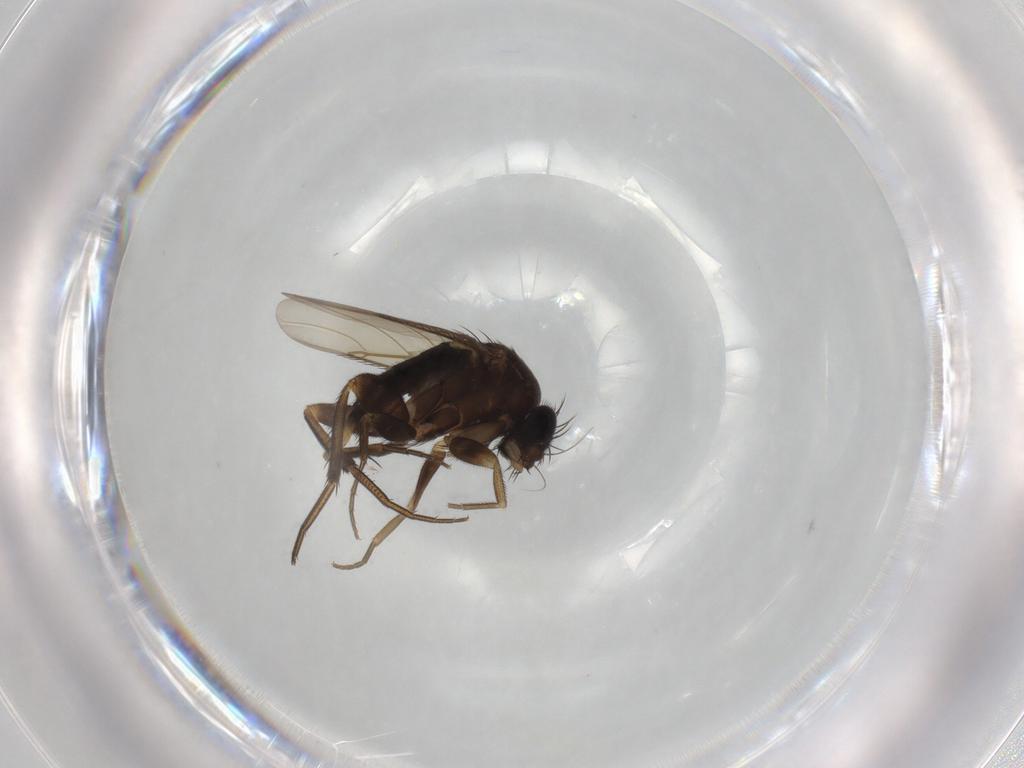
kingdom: Animalia
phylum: Arthropoda
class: Insecta
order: Diptera
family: Phoridae
